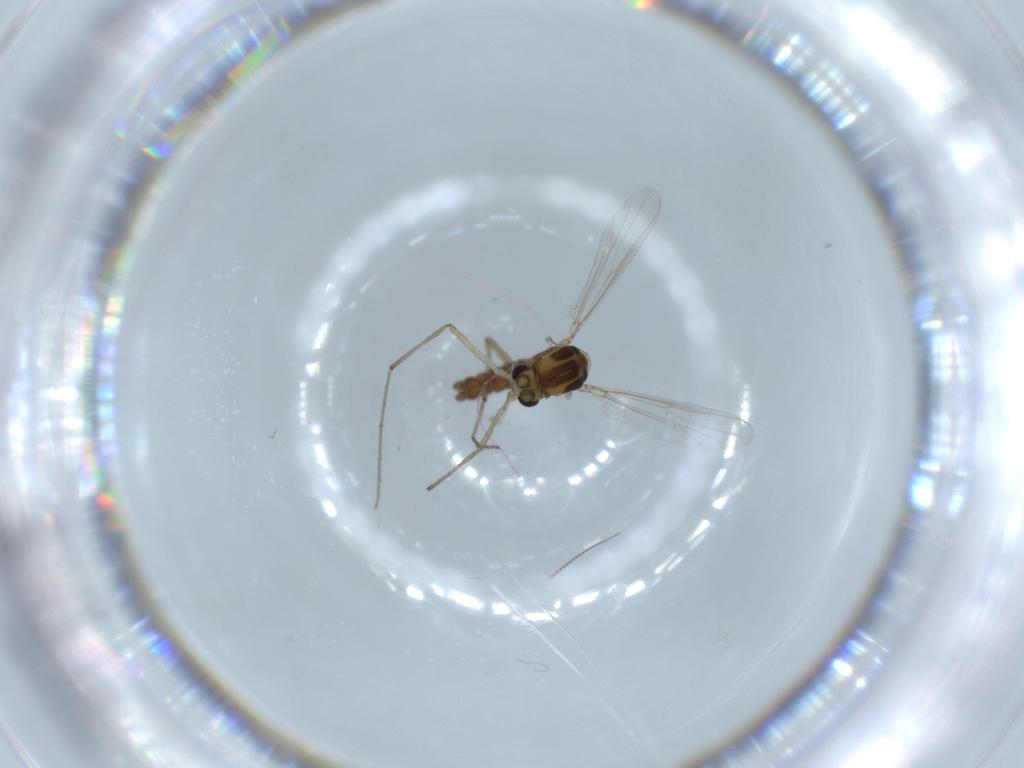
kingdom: Animalia
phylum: Arthropoda
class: Insecta
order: Diptera
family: Chironomidae
